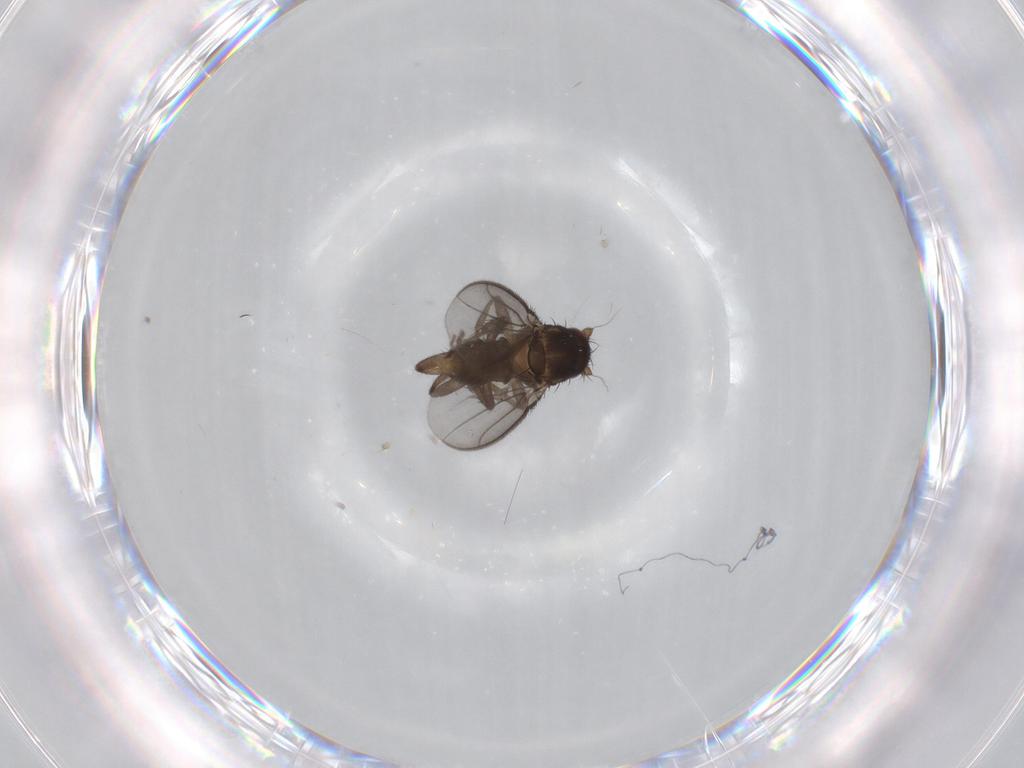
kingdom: Animalia
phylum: Arthropoda
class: Insecta
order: Diptera
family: Sphaeroceridae
